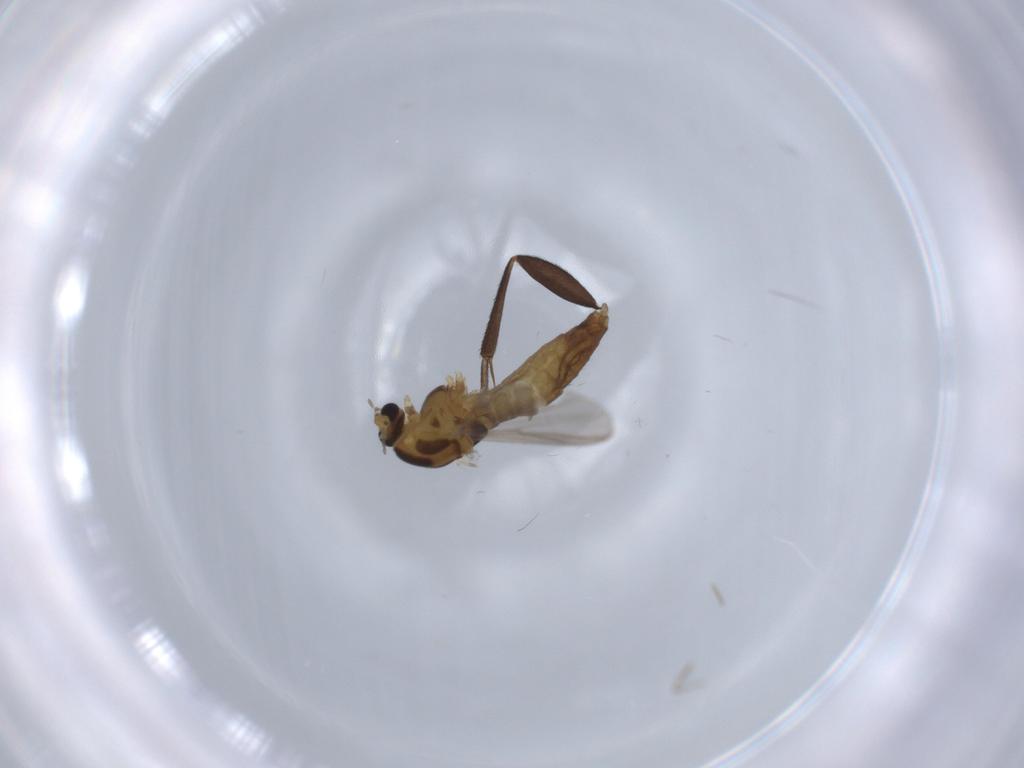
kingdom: Animalia
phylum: Arthropoda
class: Insecta
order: Diptera
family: Chironomidae
